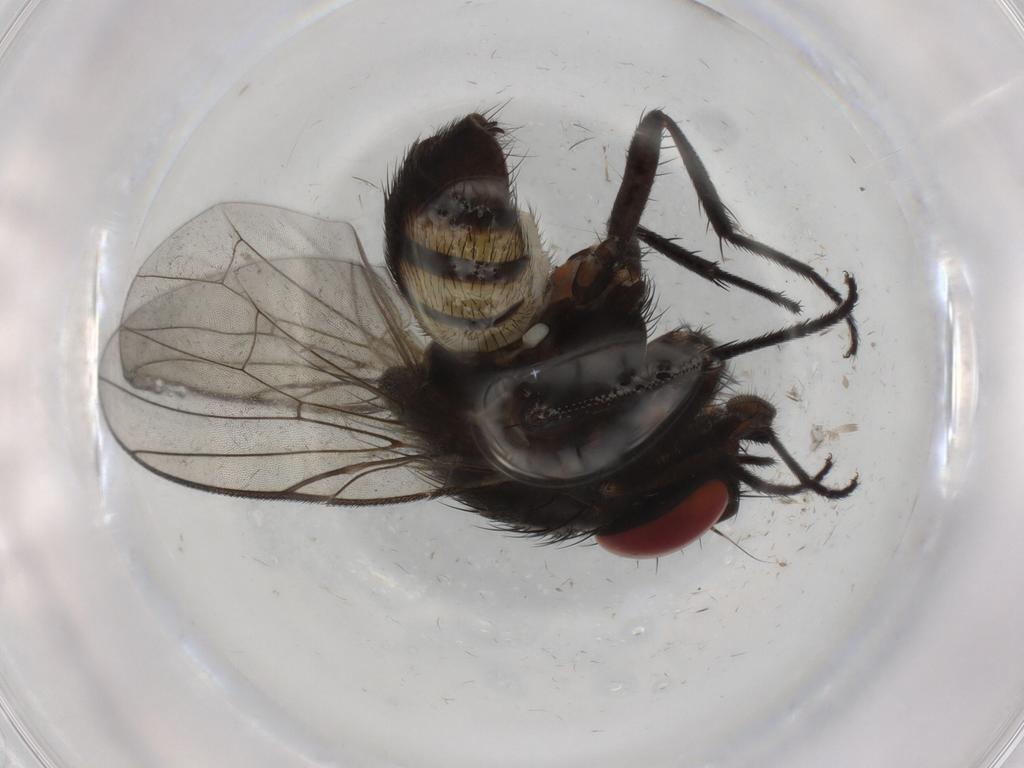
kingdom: Animalia
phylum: Arthropoda
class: Insecta
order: Diptera
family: Muscidae
